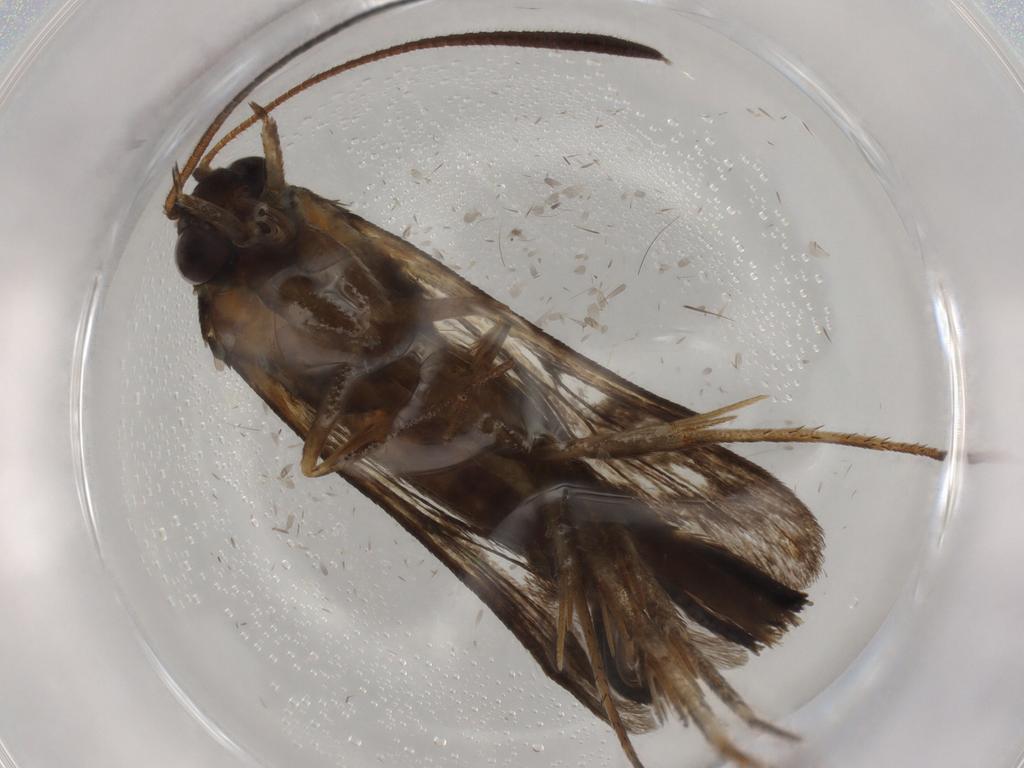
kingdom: Animalia
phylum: Arthropoda
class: Insecta
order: Lepidoptera
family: Sesiidae
